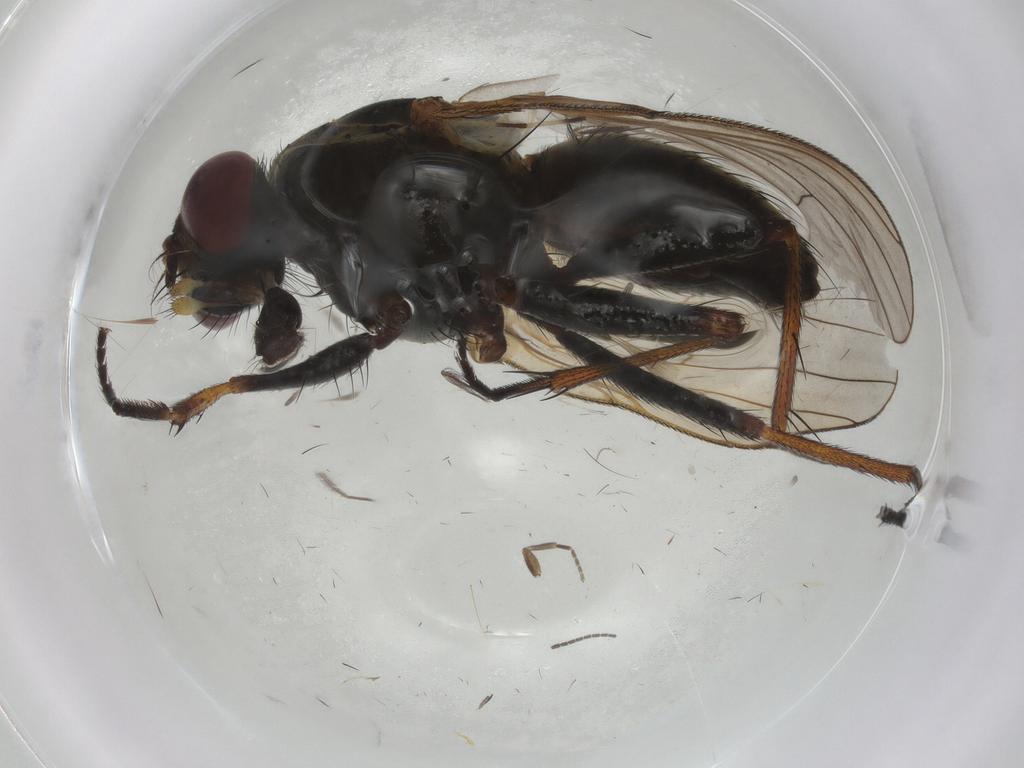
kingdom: Animalia
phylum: Arthropoda
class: Insecta
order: Diptera
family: Muscidae
